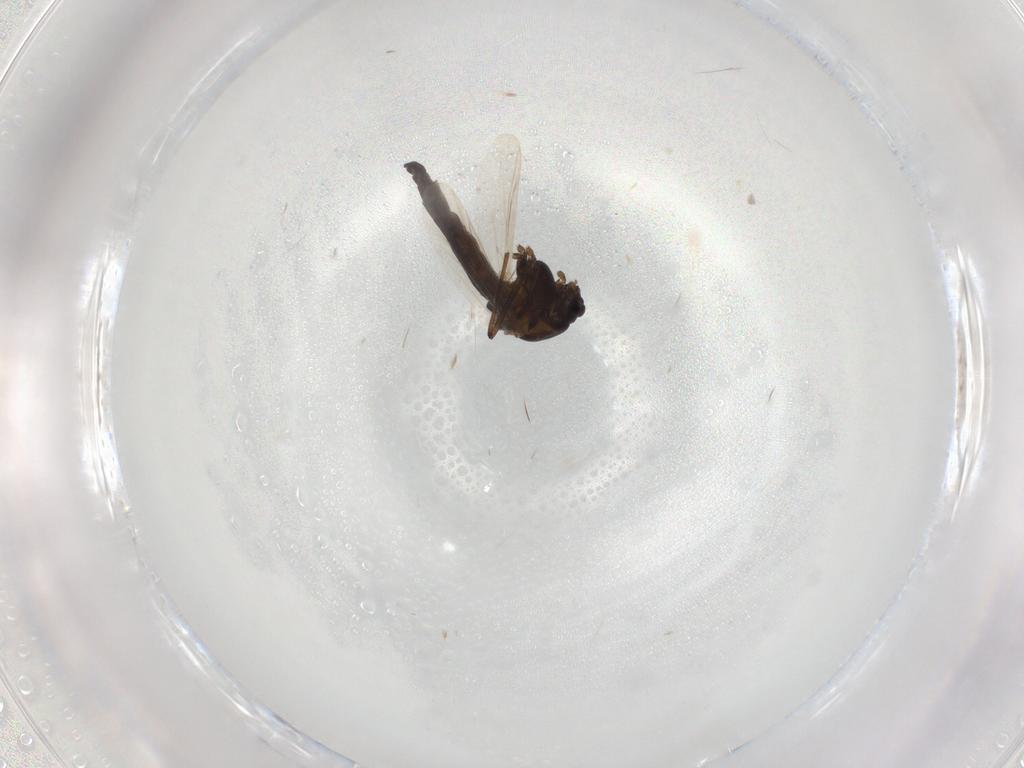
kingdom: Animalia
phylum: Arthropoda
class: Insecta
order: Diptera
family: Chironomidae
